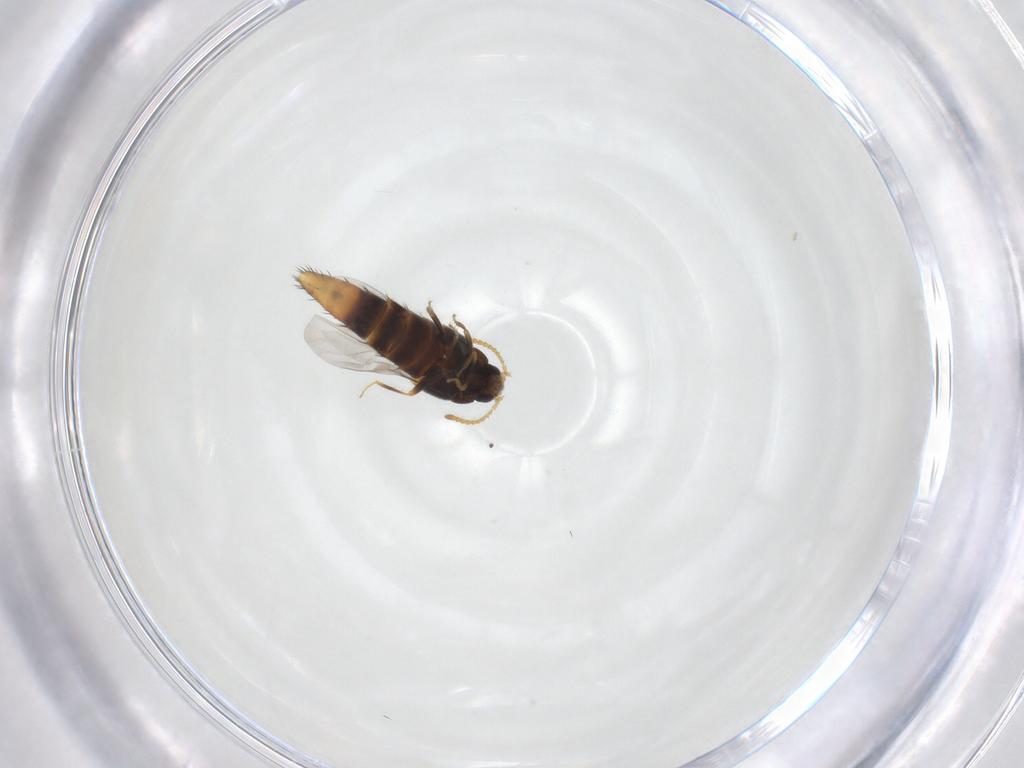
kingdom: Animalia
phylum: Arthropoda
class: Insecta
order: Coleoptera
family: Staphylinidae
